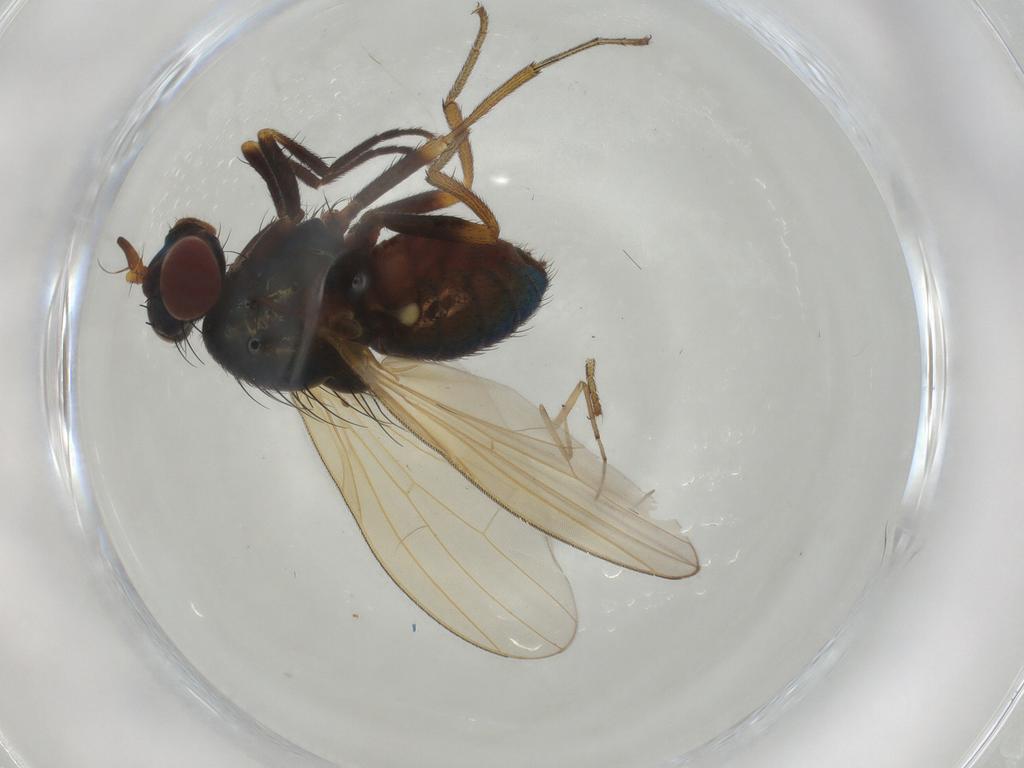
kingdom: Animalia
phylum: Arthropoda
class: Insecta
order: Diptera
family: Lauxaniidae
